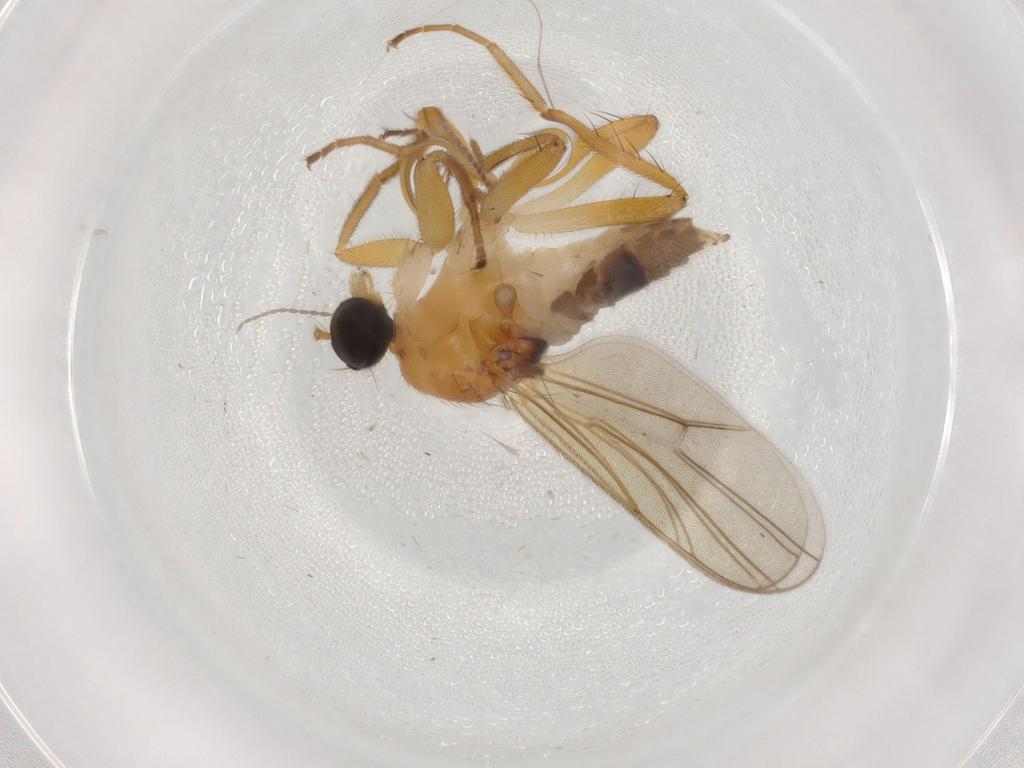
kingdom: Animalia
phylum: Arthropoda
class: Insecta
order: Diptera
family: Hybotidae
